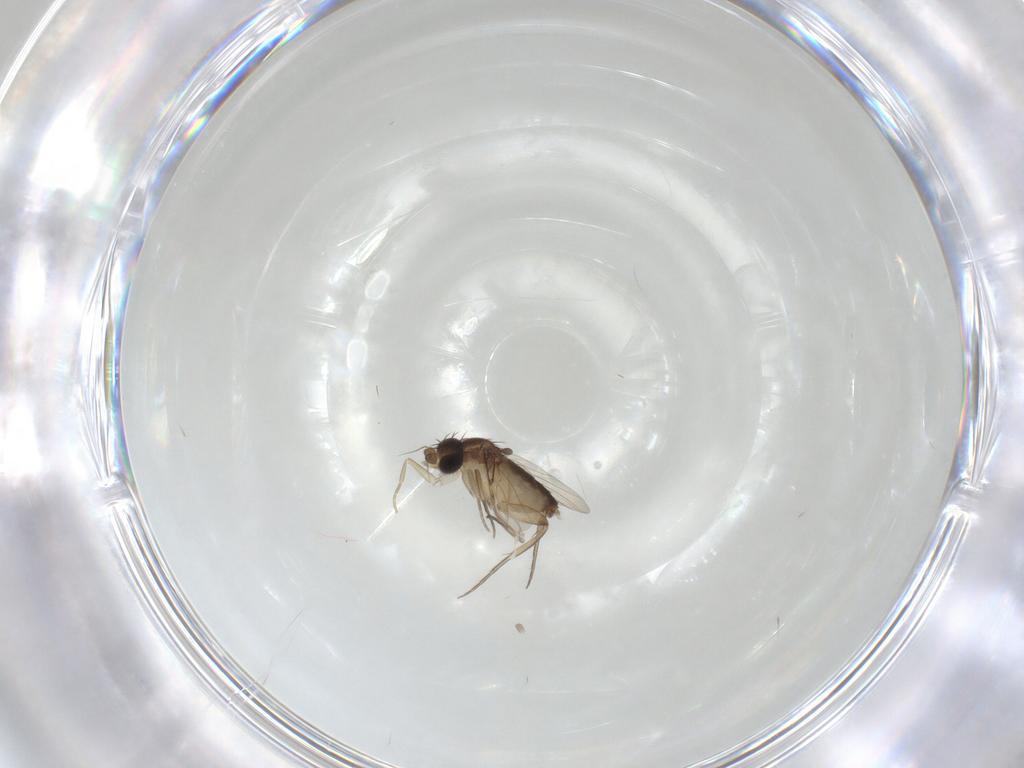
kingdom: Animalia
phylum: Arthropoda
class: Insecta
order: Diptera
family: Phoridae
